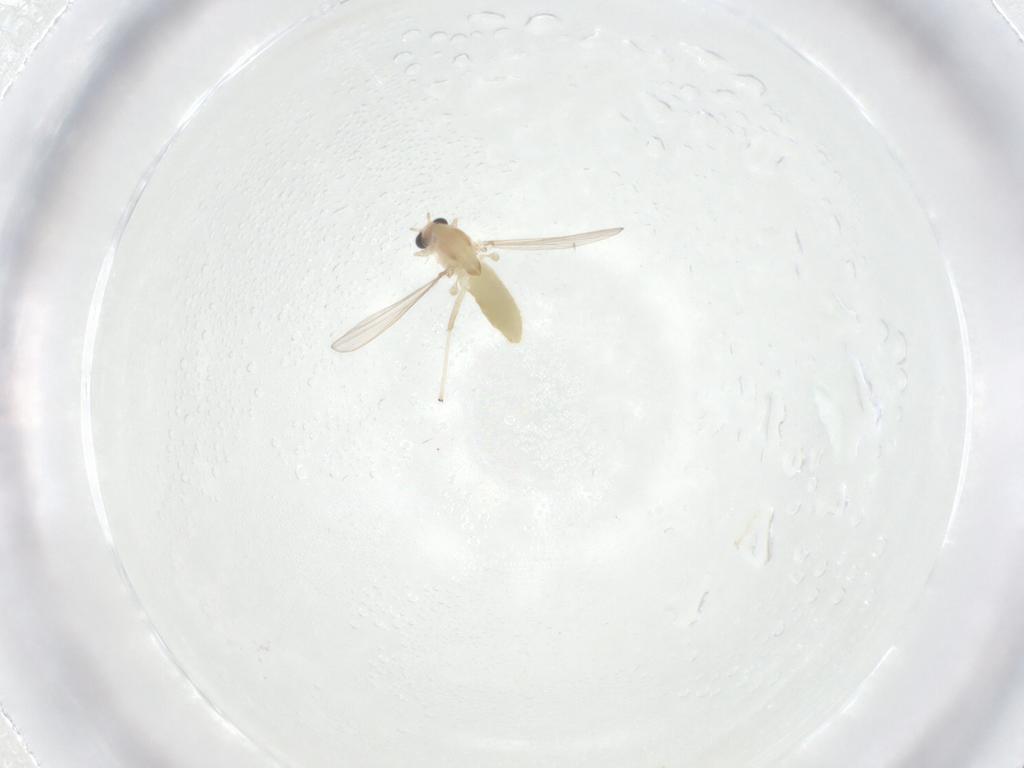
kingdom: Animalia
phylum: Arthropoda
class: Insecta
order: Diptera
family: Chironomidae
